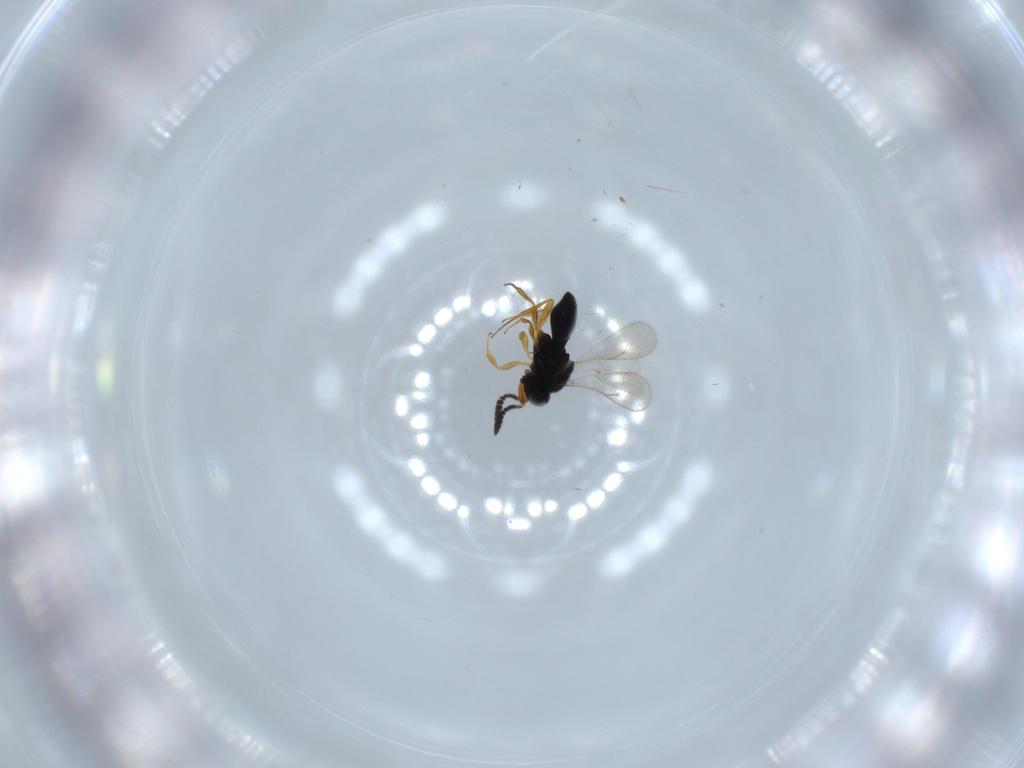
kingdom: Animalia
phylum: Arthropoda
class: Insecta
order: Hymenoptera
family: Scelionidae
